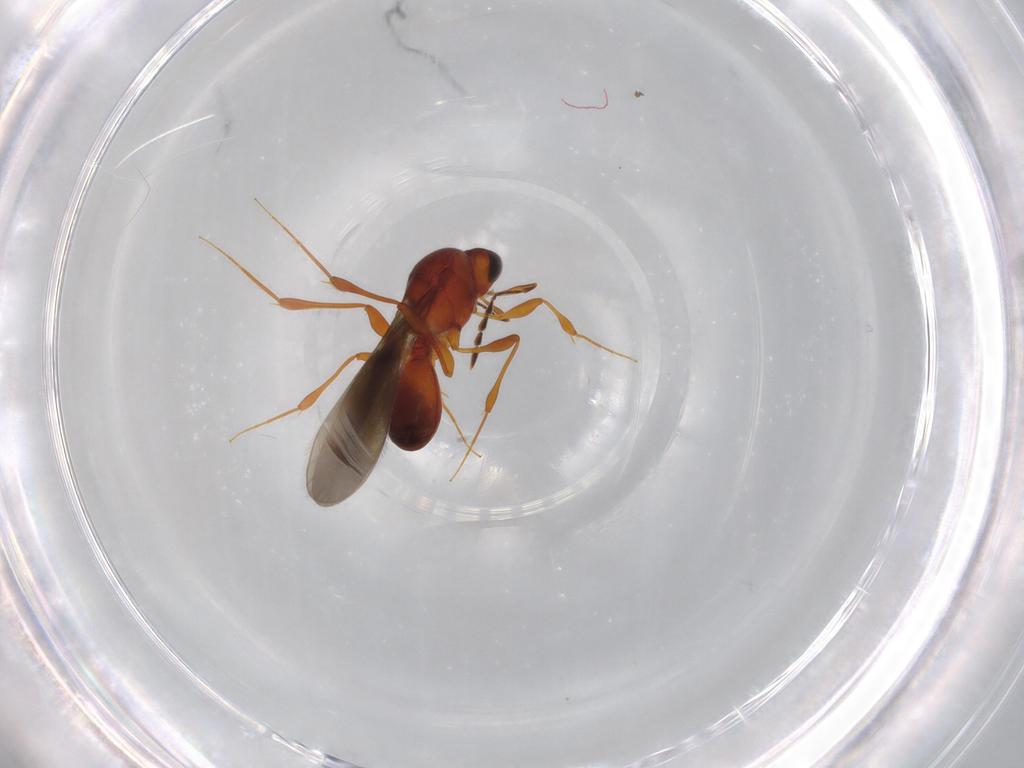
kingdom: Animalia
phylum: Arthropoda
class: Insecta
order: Hymenoptera
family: Platygastridae
